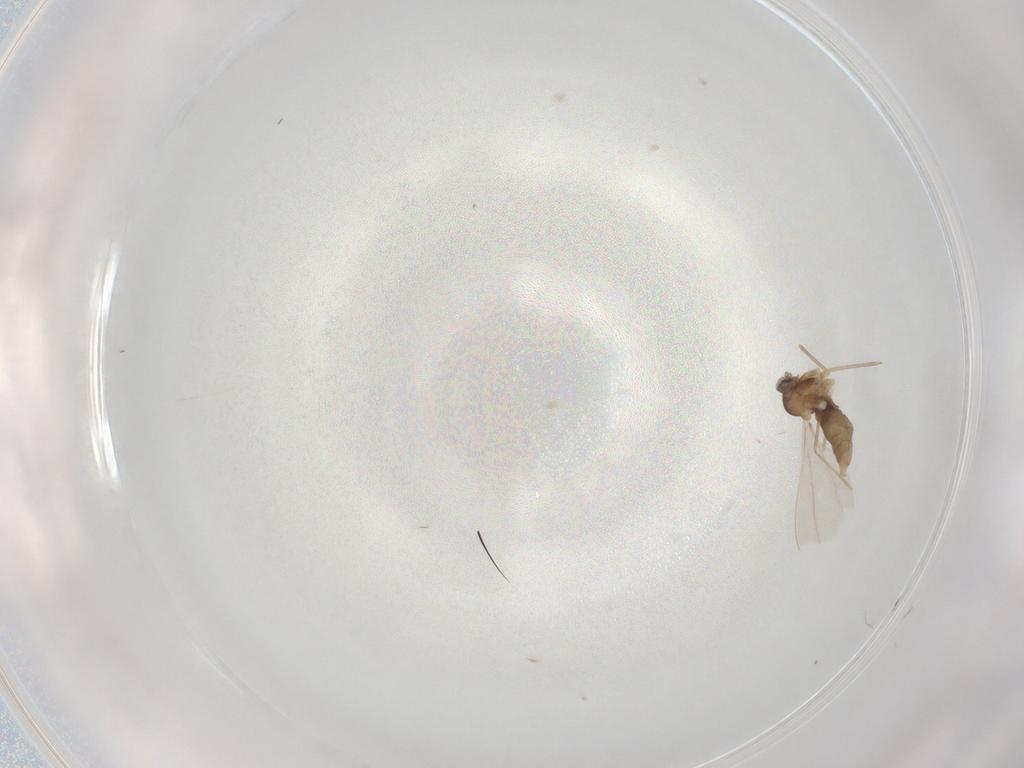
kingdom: Animalia
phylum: Arthropoda
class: Insecta
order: Diptera
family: Cecidomyiidae
